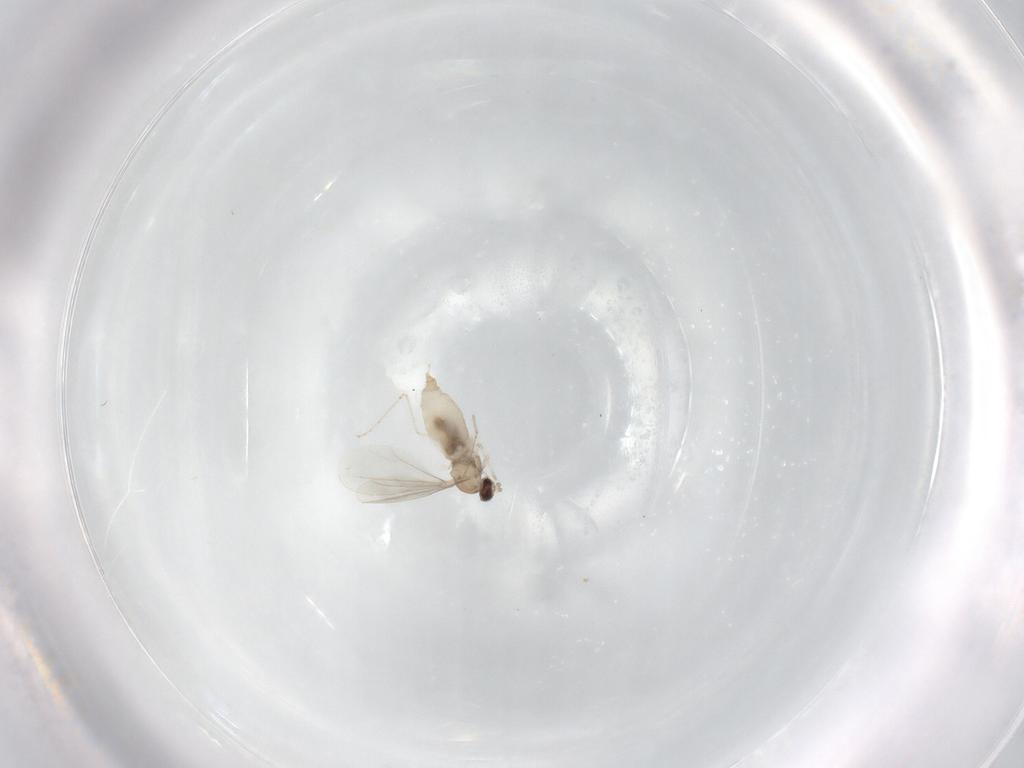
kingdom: Animalia
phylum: Arthropoda
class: Insecta
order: Diptera
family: Cecidomyiidae
